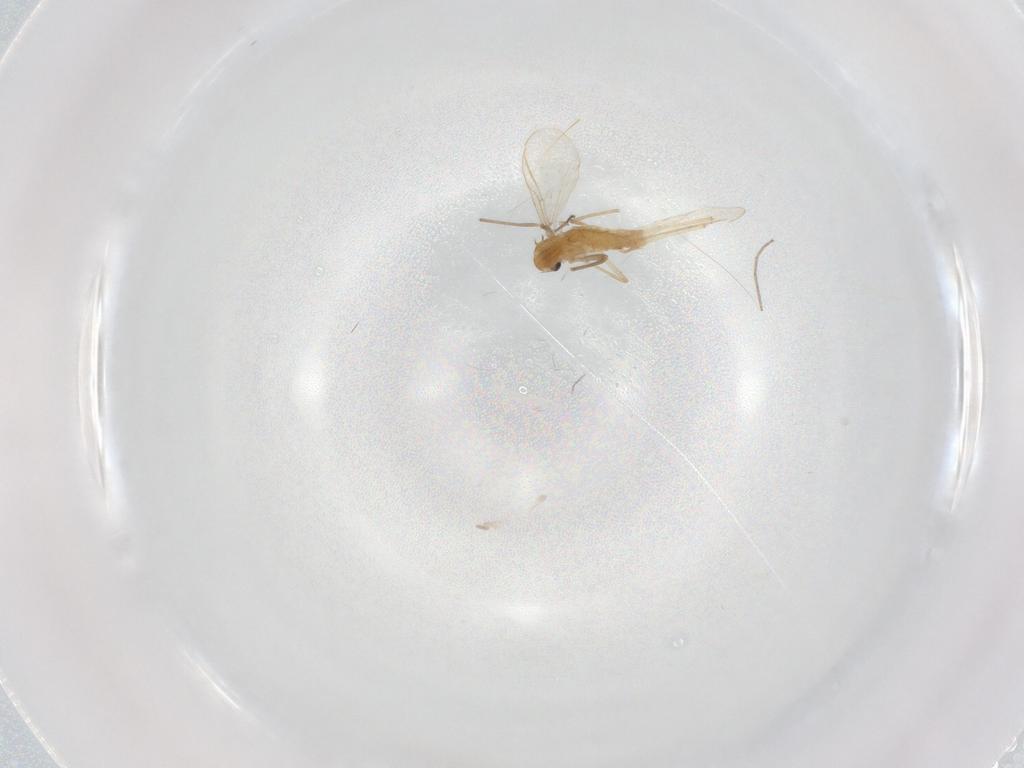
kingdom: Animalia
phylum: Arthropoda
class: Insecta
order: Diptera
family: Chironomidae
